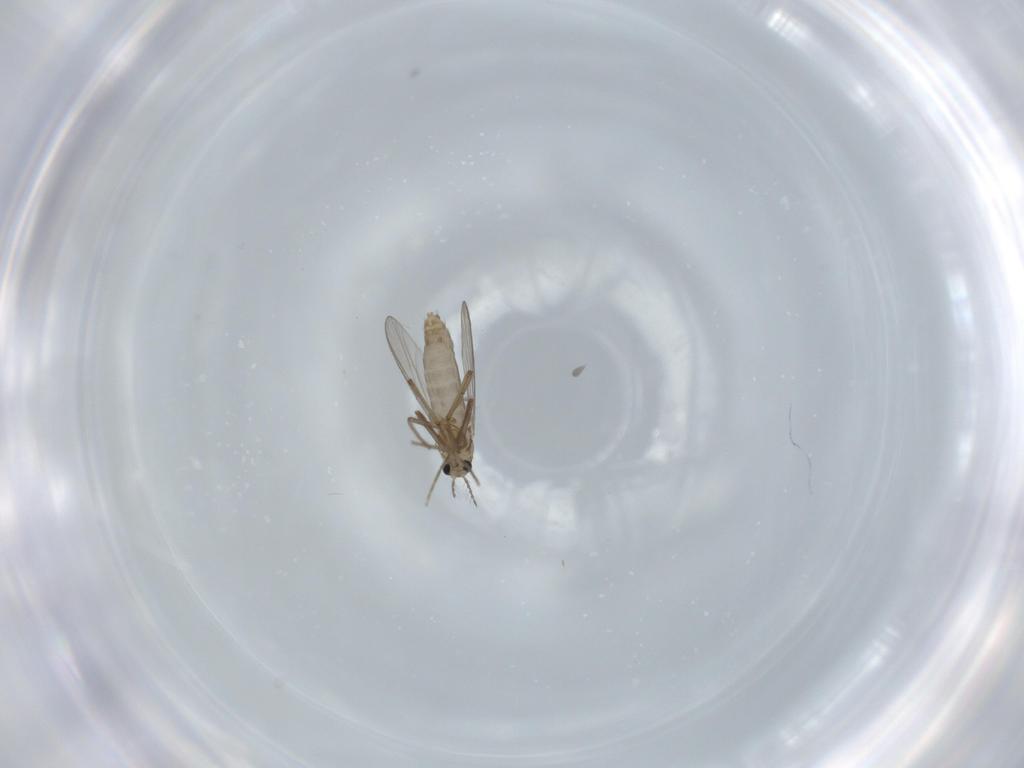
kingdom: Animalia
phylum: Arthropoda
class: Insecta
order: Diptera
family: Chironomidae
